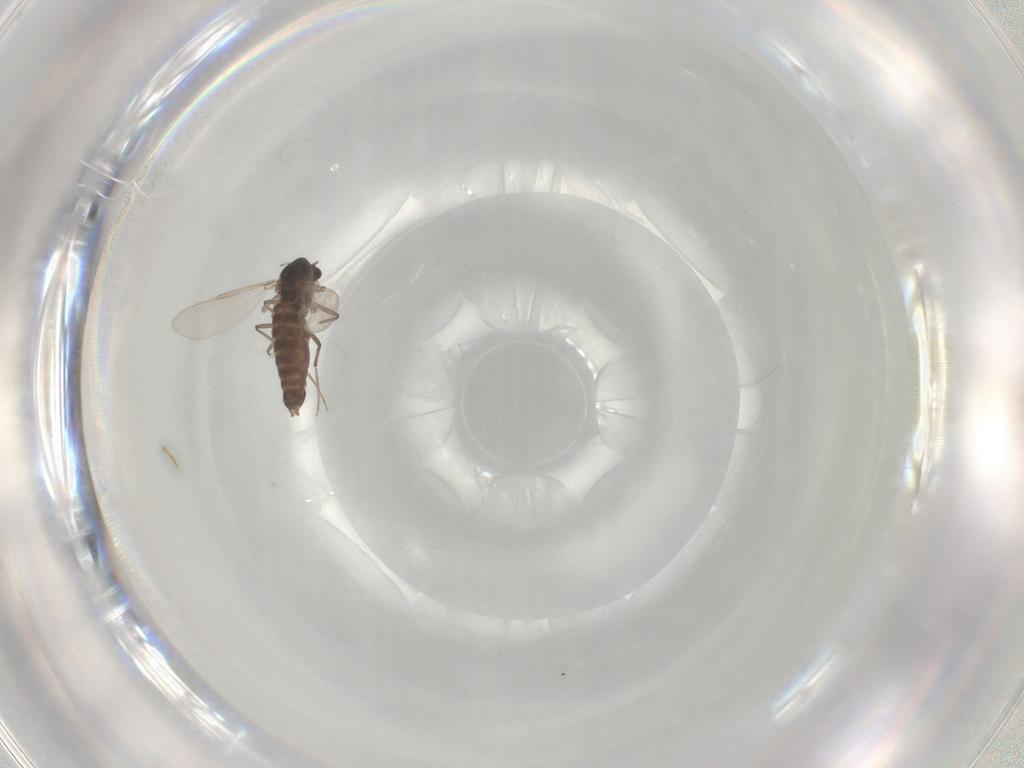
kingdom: Animalia
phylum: Arthropoda
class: Insecta
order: Diptera
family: Chironomidae
